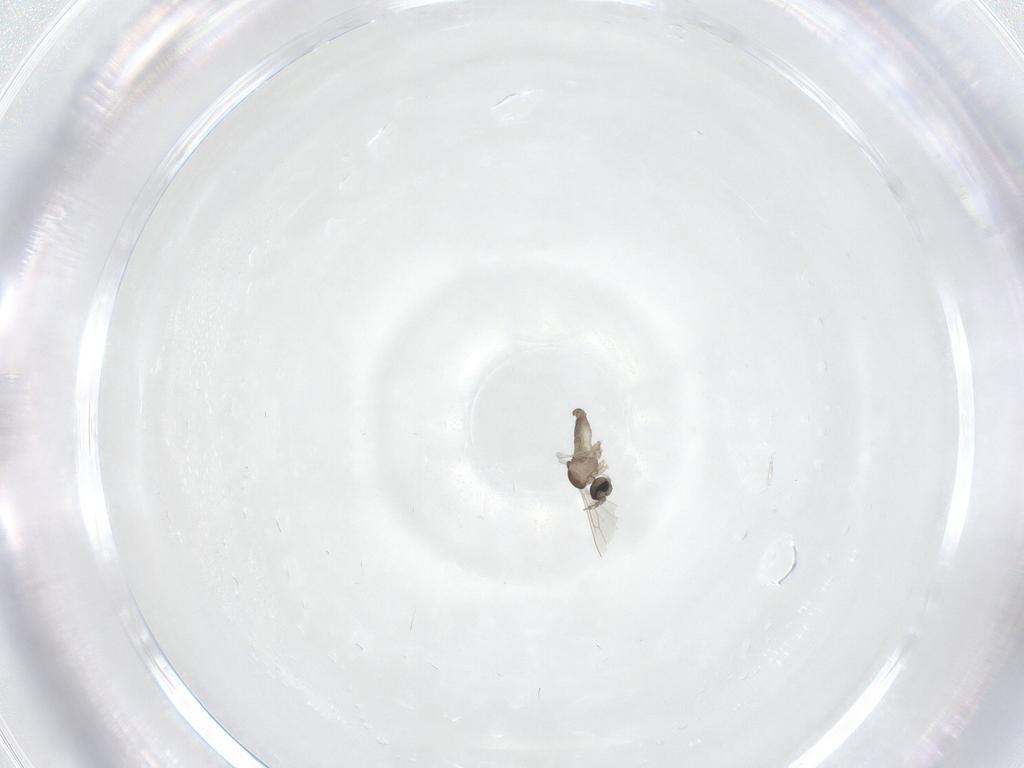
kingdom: Animalia
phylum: Arthropoda
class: Insecta
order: Diptera
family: Cecidomyiidae
